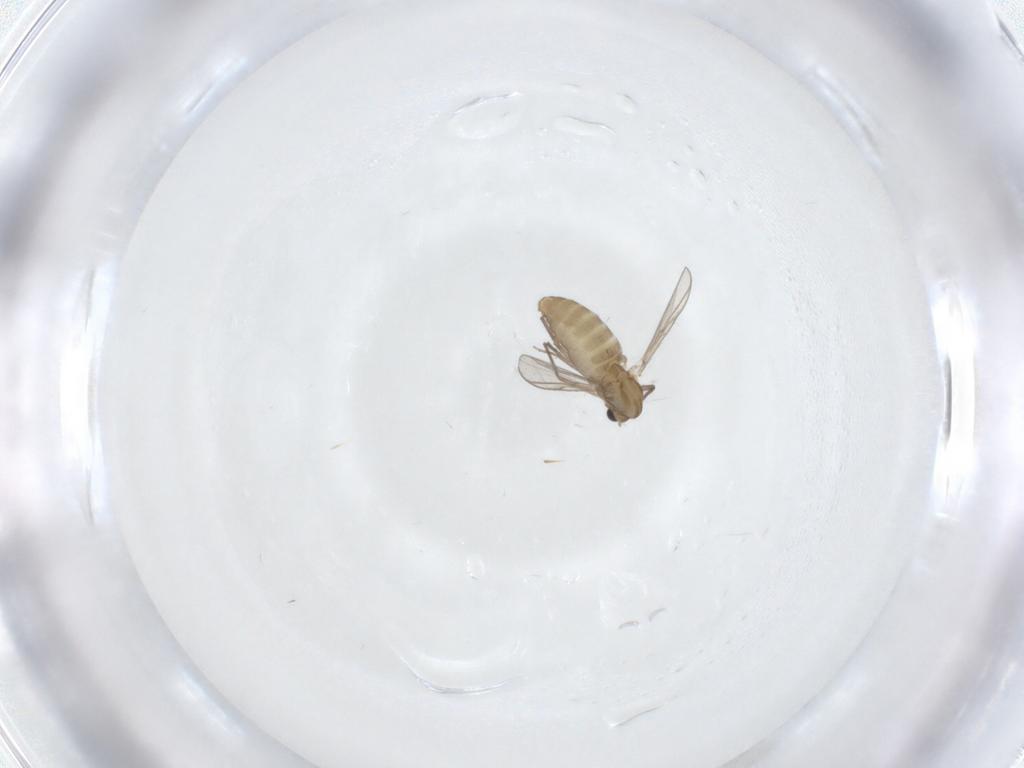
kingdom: Animalia
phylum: Arthropoda
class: Insecta
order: Diptera
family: Chironomidae
